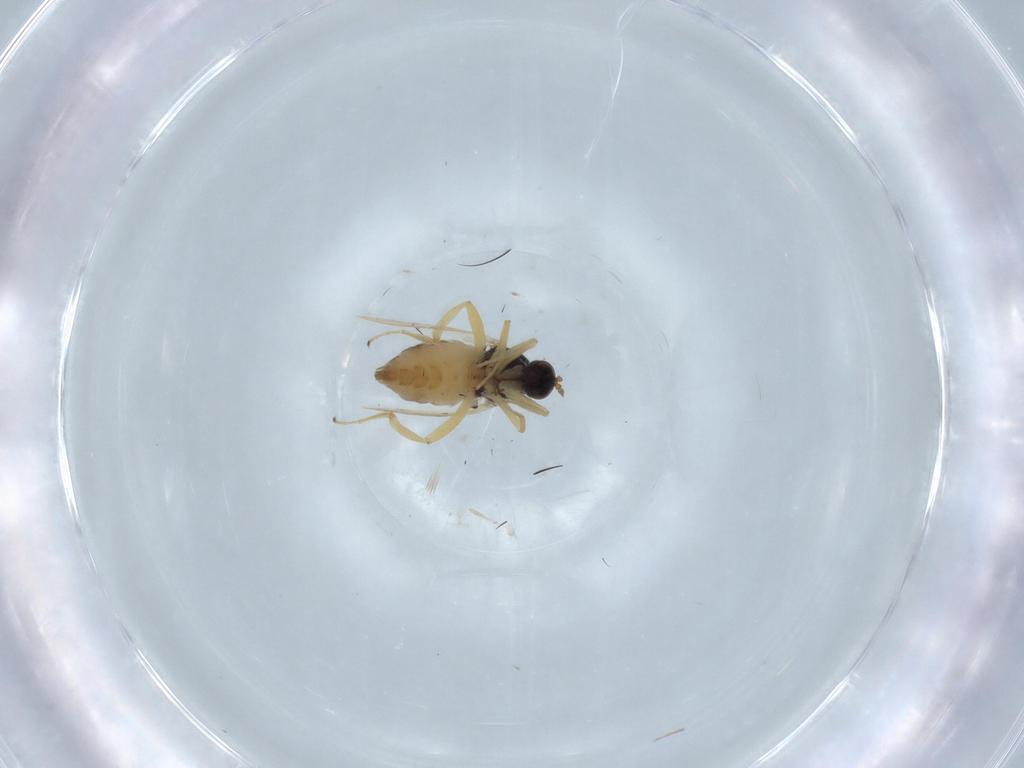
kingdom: Animalia
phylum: Arthropoda
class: Insecta
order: Diptera
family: Hybotidae
